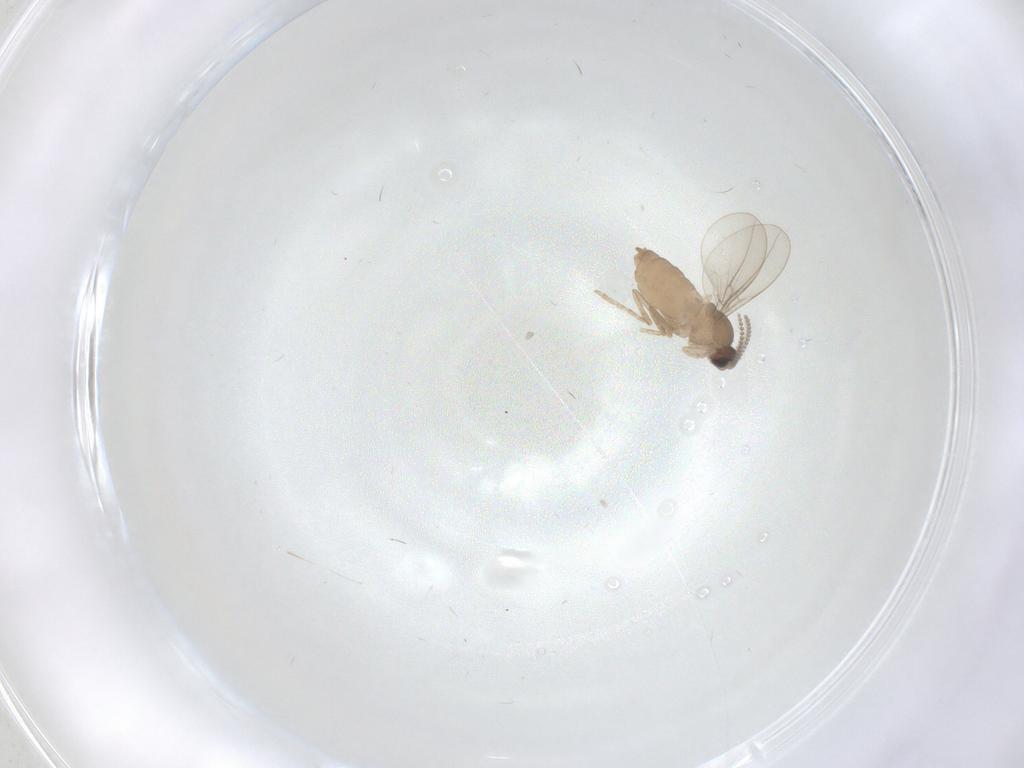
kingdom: Animalia
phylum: Arthropoda
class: Insecta
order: Diptera
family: Cecidomyiidae
